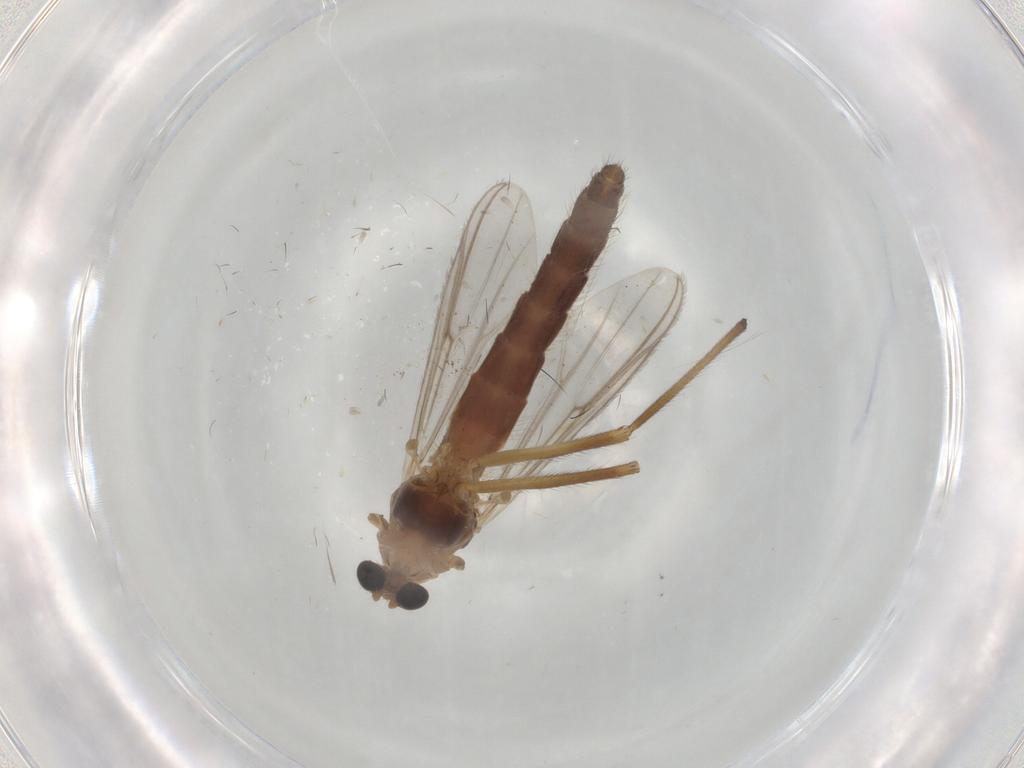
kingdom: Animalia
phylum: Arthropoda
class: Insecta
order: Diptera
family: Chironomidae
